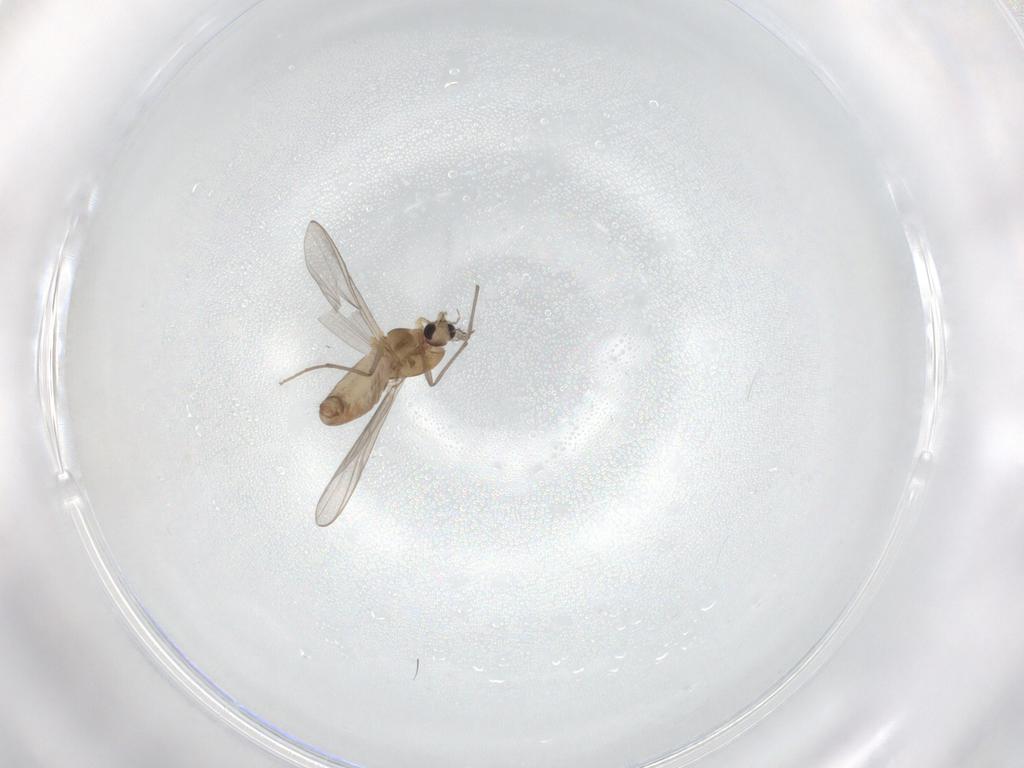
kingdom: Animalia
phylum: Arthropoda
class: Insecta
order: Diptera
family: Chironomidae
